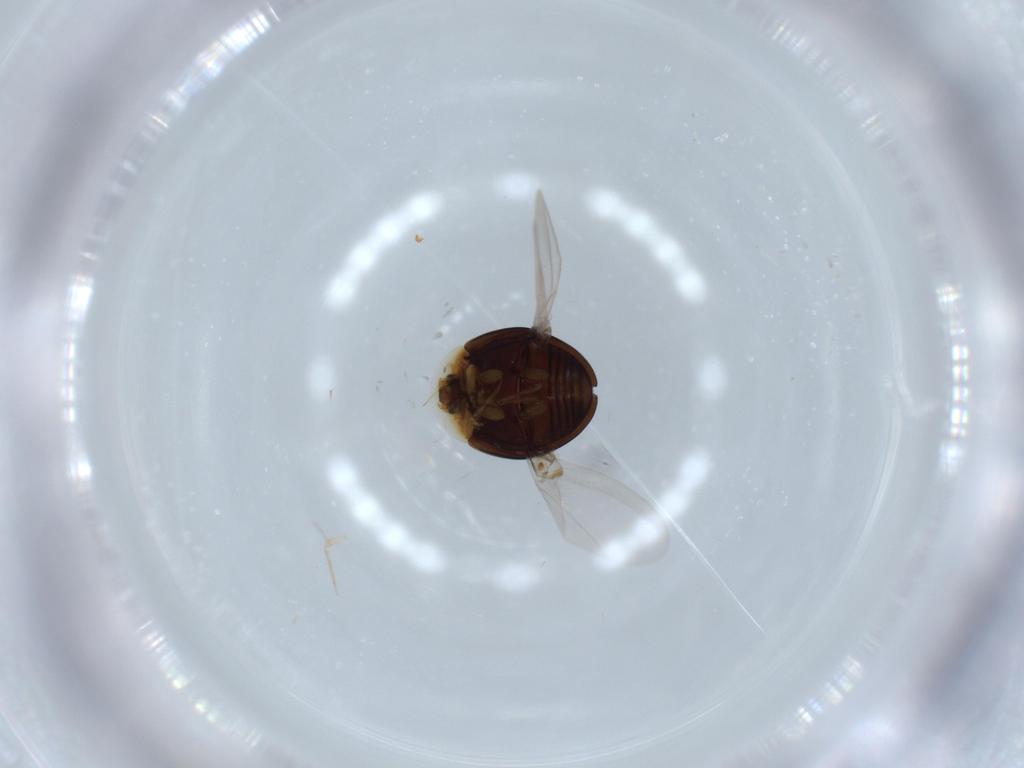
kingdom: Animalia
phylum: Arthropoda
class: Insecta
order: Coleoptera
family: Corylophidae
